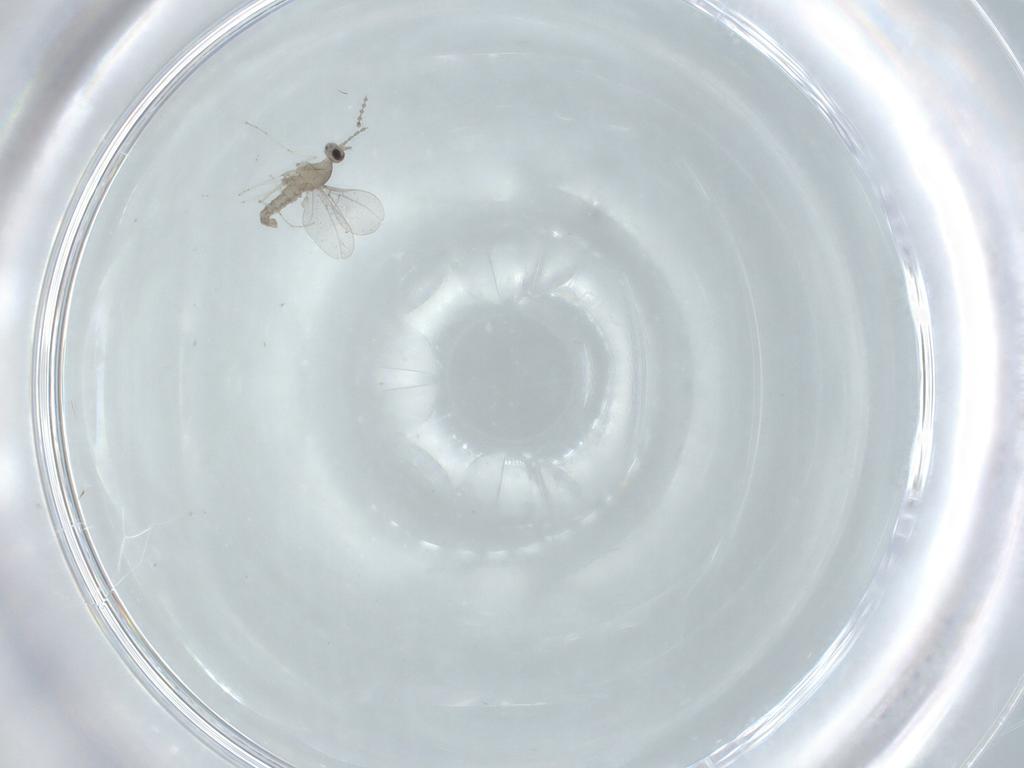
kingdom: Animalia
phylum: Arthropoda
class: Insecta
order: Diptera
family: Cecidomyiidae
